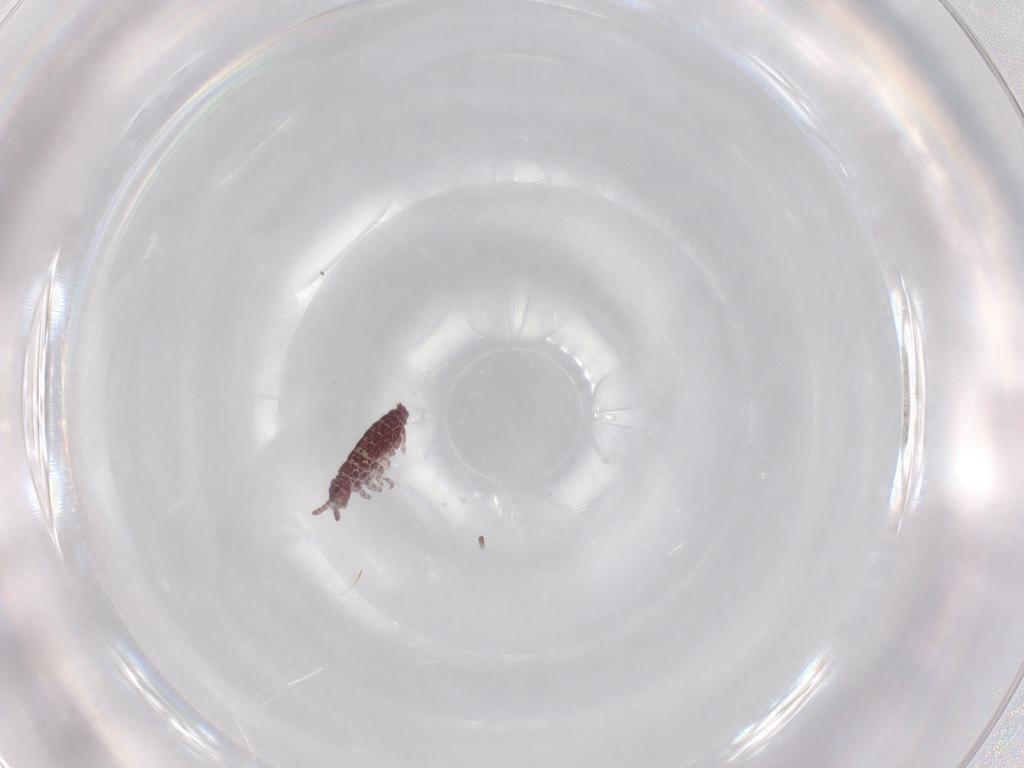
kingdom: Animalia
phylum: Arthropoda
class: Collembola
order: Poduromorpha
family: Hypogastruridae
